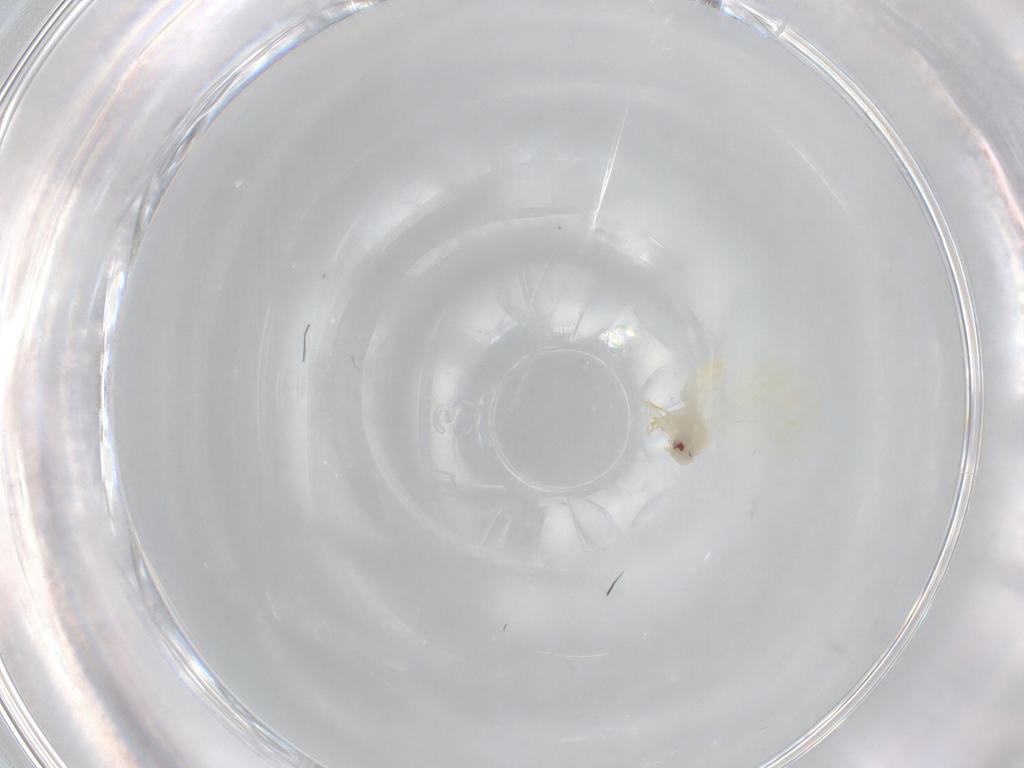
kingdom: Animalia
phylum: Arthropoda
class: Insecta
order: Hemiptera
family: Aleyrodidae
